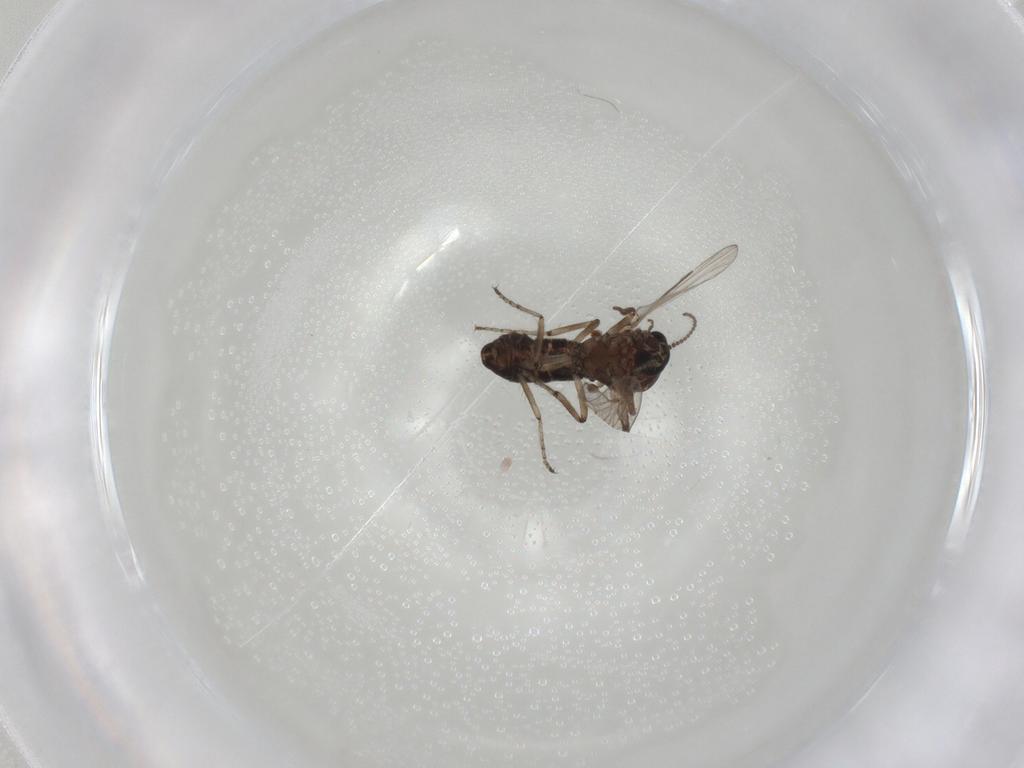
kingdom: Animalia
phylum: Arthropoda
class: Insecta
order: Diptera
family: Ceratopogonidae
